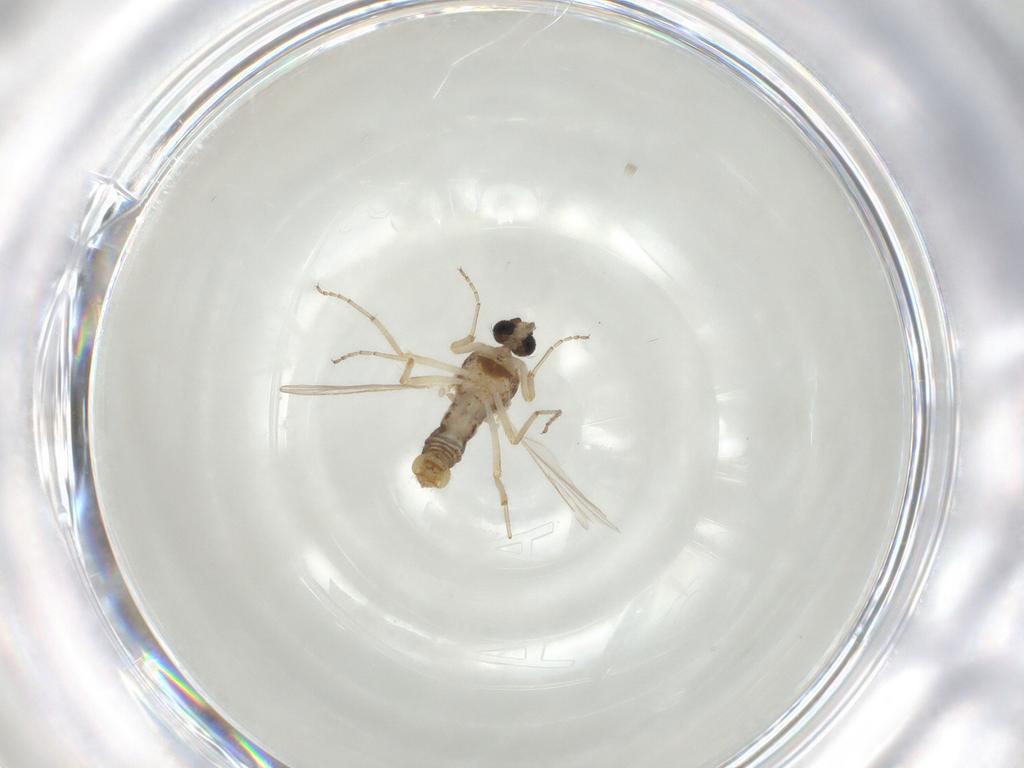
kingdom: Animalia
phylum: Arthropoda
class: Insecta
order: Diptera
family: Ceratopogonidae
